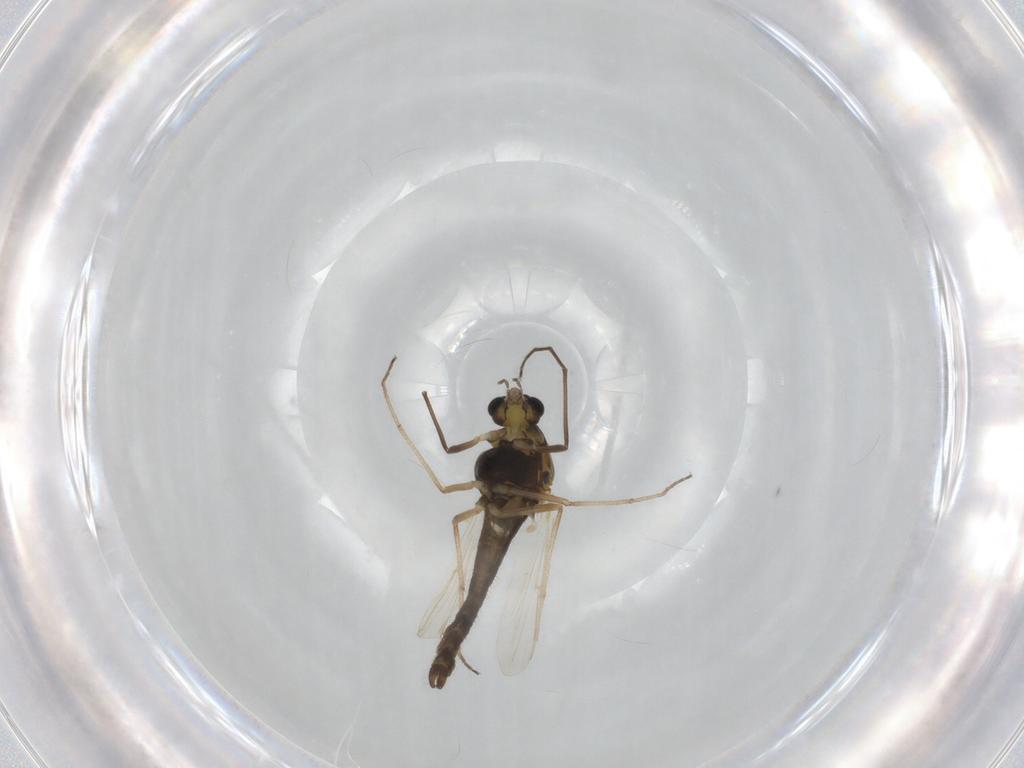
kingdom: Animalia
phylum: Arthropoda
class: Insecta
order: Diptera
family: Chironomidae
